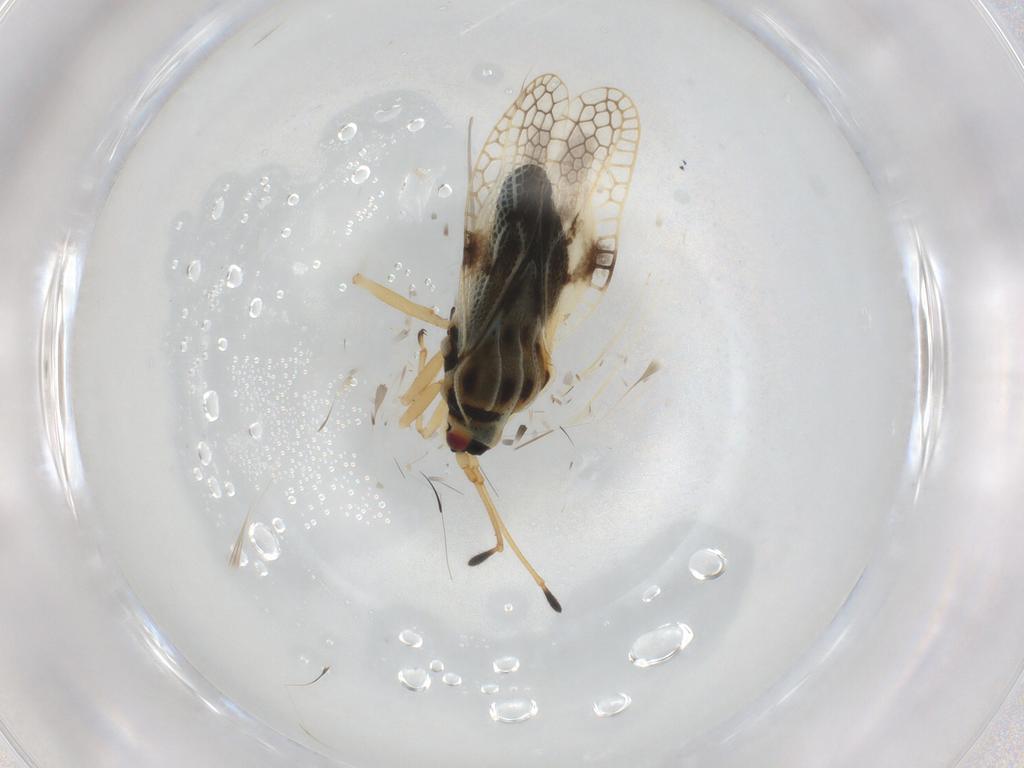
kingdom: Animalia
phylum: Arthropoda
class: Insecta
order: Hemiptera
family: Tingidae
